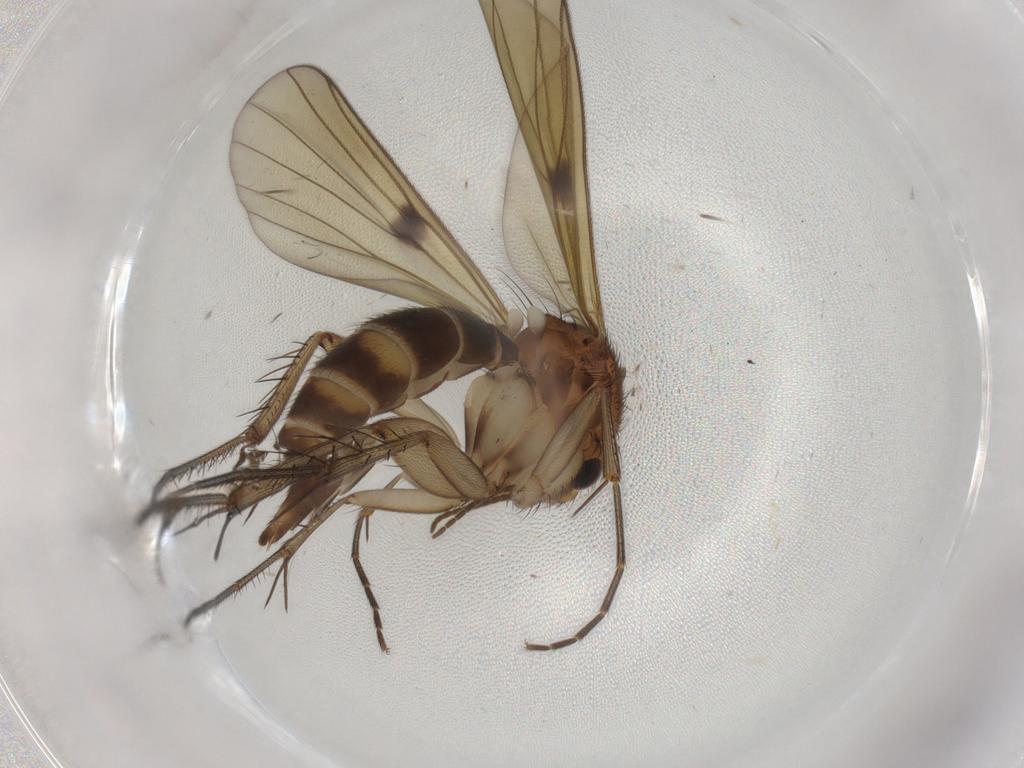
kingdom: Animalia
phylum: Arthropoda
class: Insecta
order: Diptera
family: Mycetophilidae
